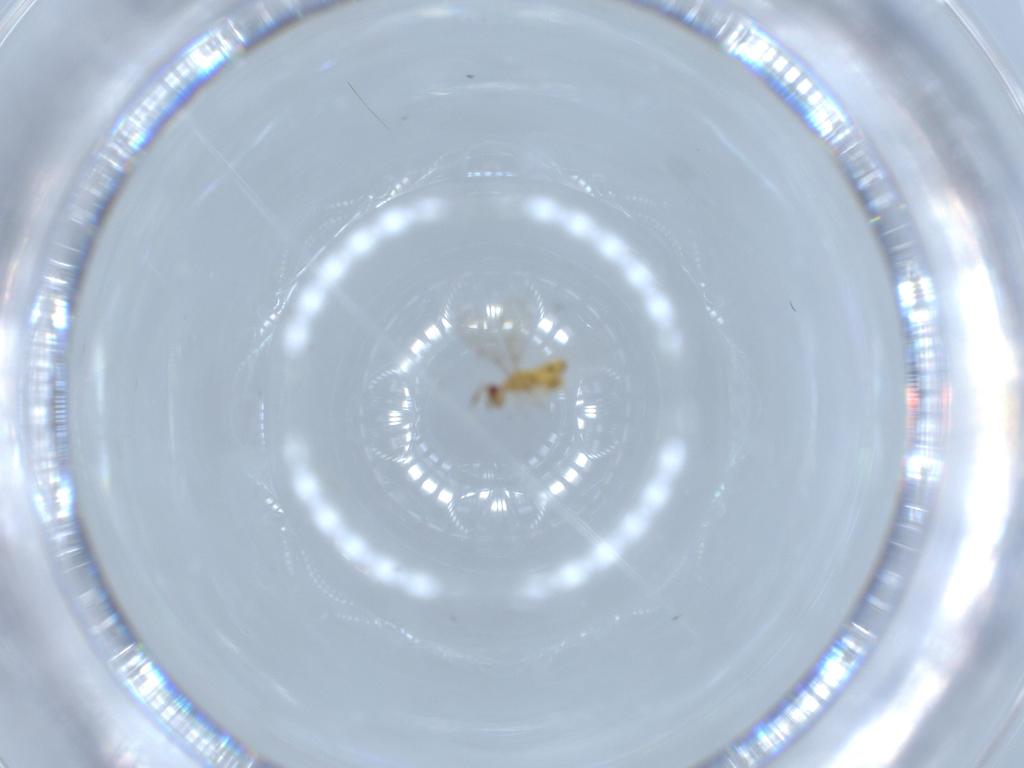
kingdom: Animalia
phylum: Arthropoda
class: Insecta
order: Hymenoptera
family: Trichogrammatidae
